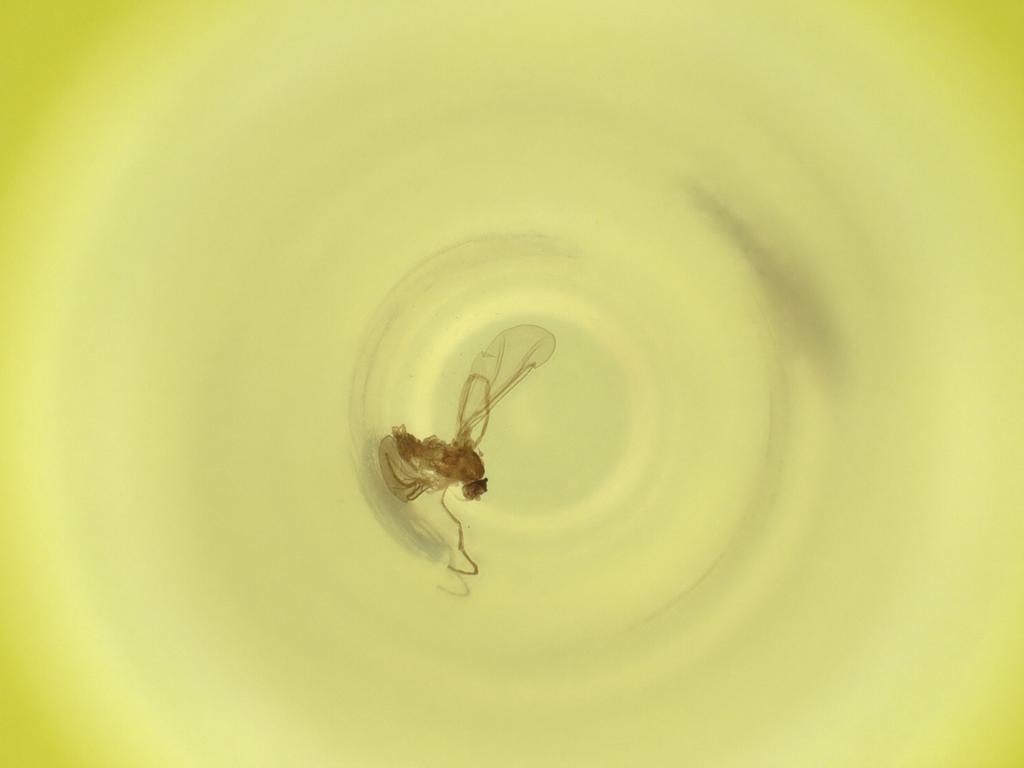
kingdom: Animalia
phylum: Arthropoda
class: Insecta
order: Diptera
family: Cecidomyiidae
